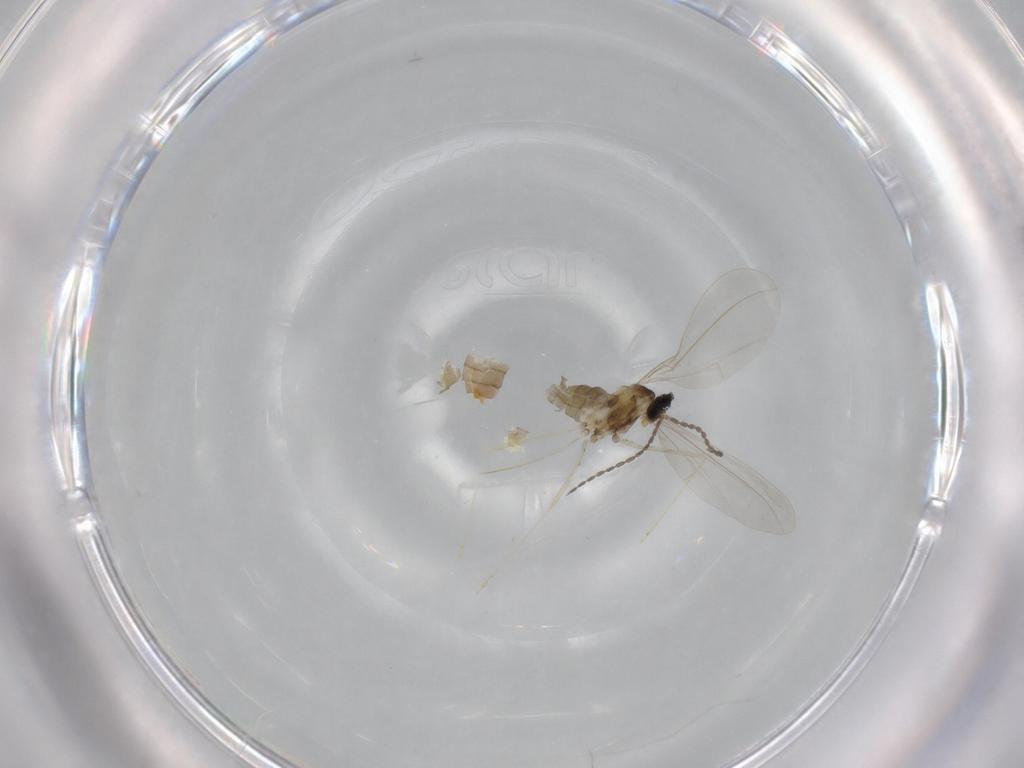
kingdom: Animalia
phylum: Arthropoda
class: Insecta
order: Diptera
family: Cecidomyiidae
